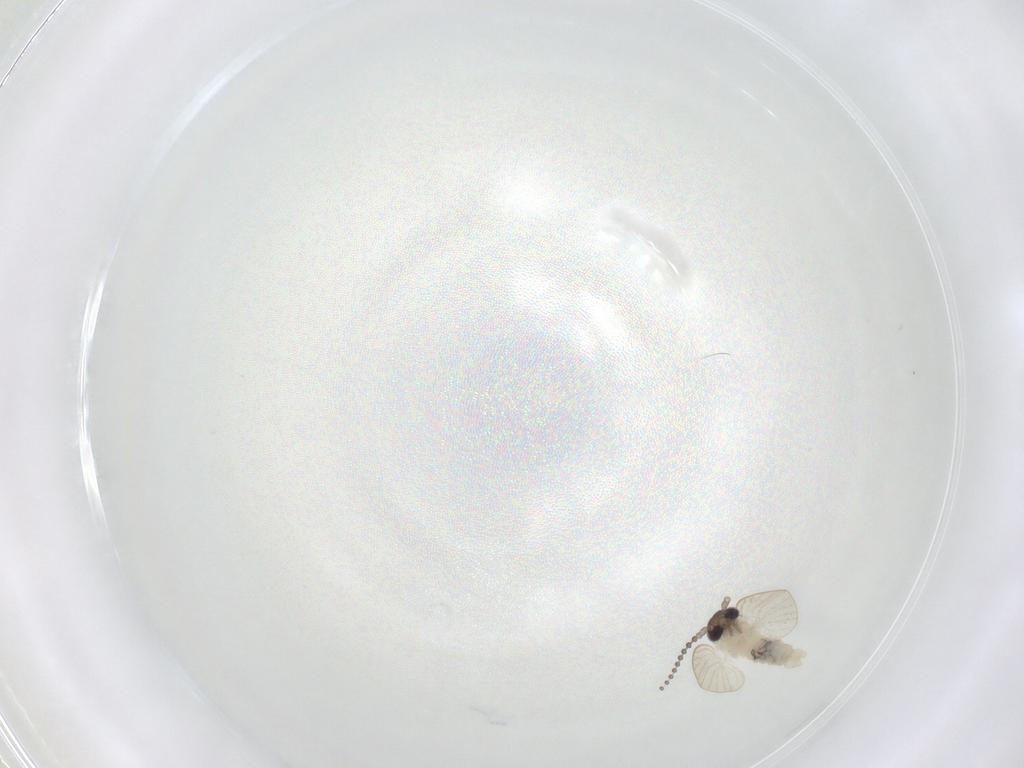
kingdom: Animalia
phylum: Arthropoda
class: Insecta
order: Diptera
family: Psychodidae
